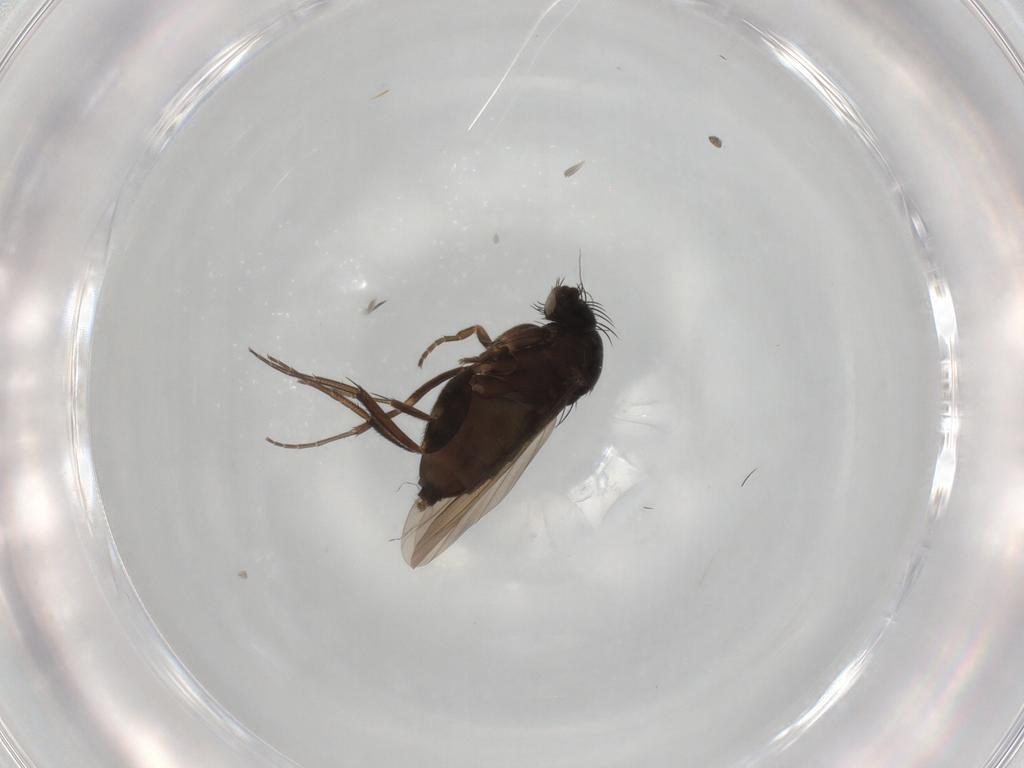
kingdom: Animalia
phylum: Arthropoda
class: Insecta
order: Diptera
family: Phoridae
